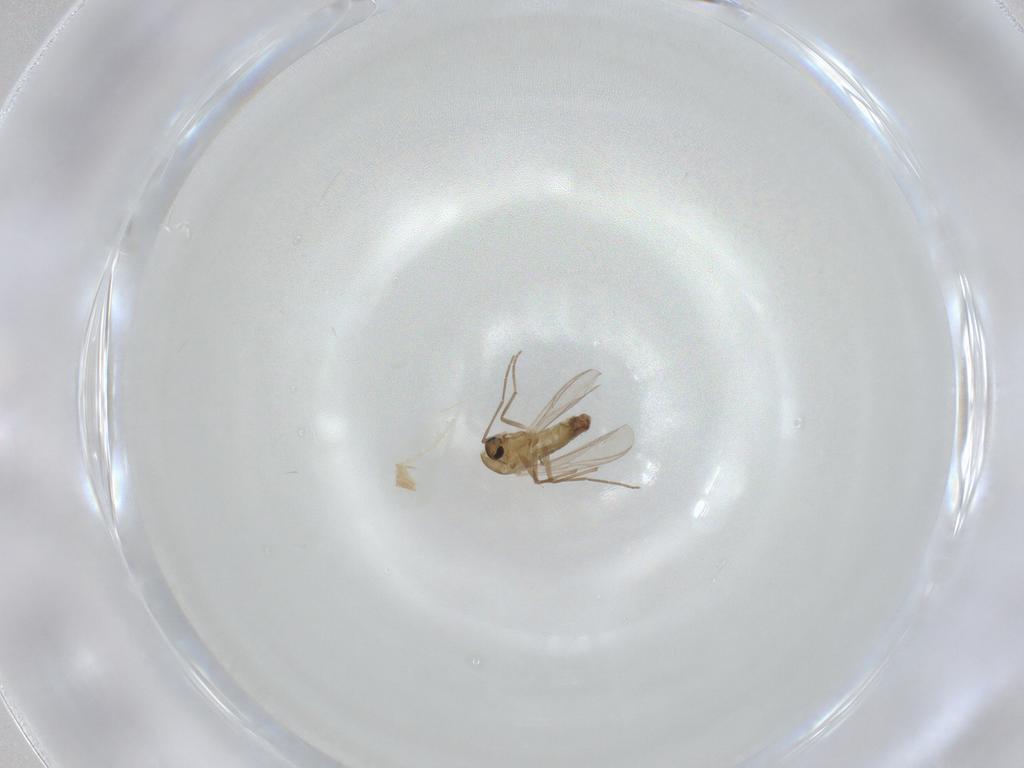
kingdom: Animalia
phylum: Arthropoda
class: Insecta
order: Diptera
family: Chironomidae
